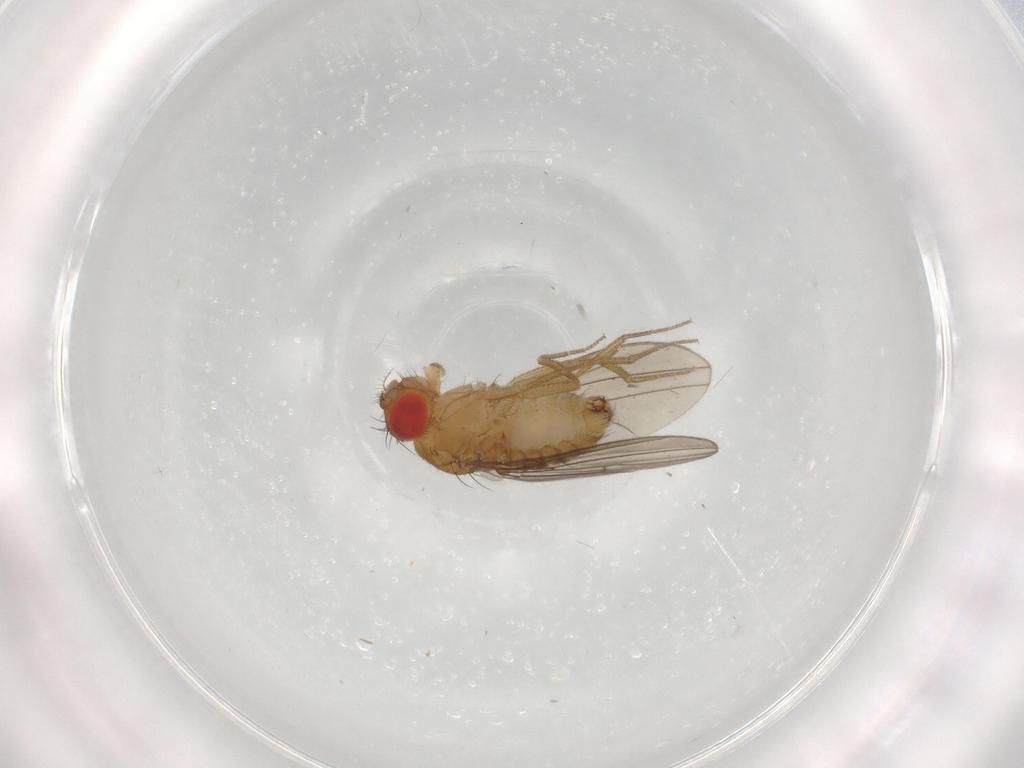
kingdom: Animalia
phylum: Arthropoda
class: Insecta
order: Diptera
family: Drosophilidae
